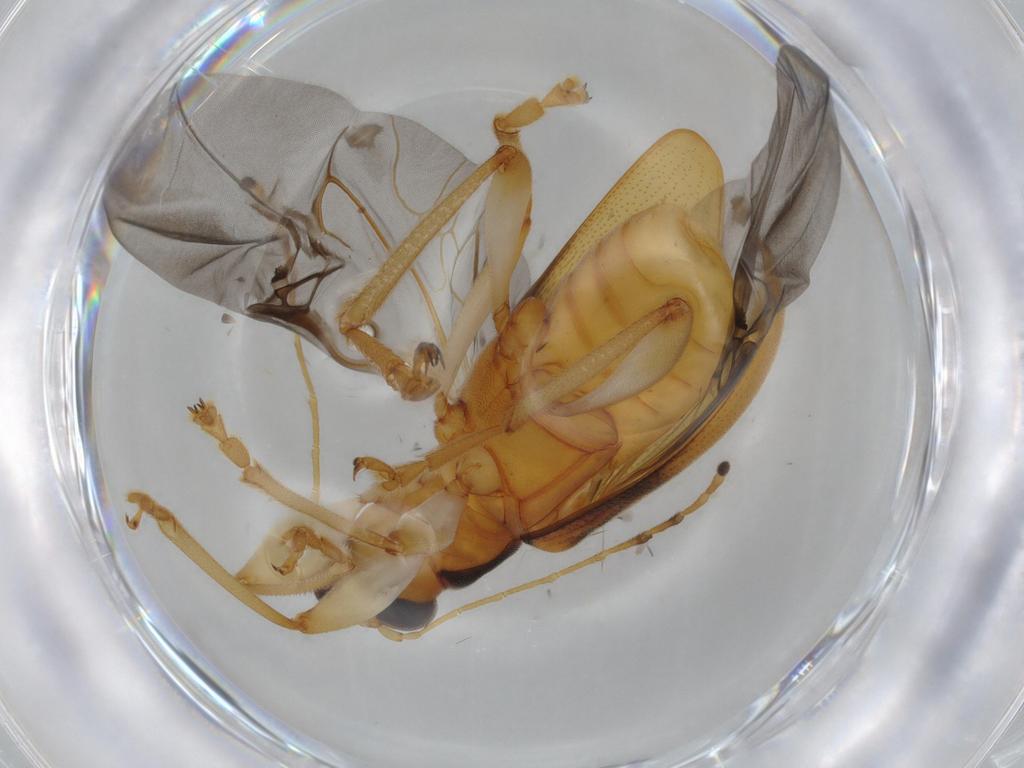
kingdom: Animalia
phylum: Arthropoda
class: Insecta
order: Coleoptera
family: Chrysomelidae
